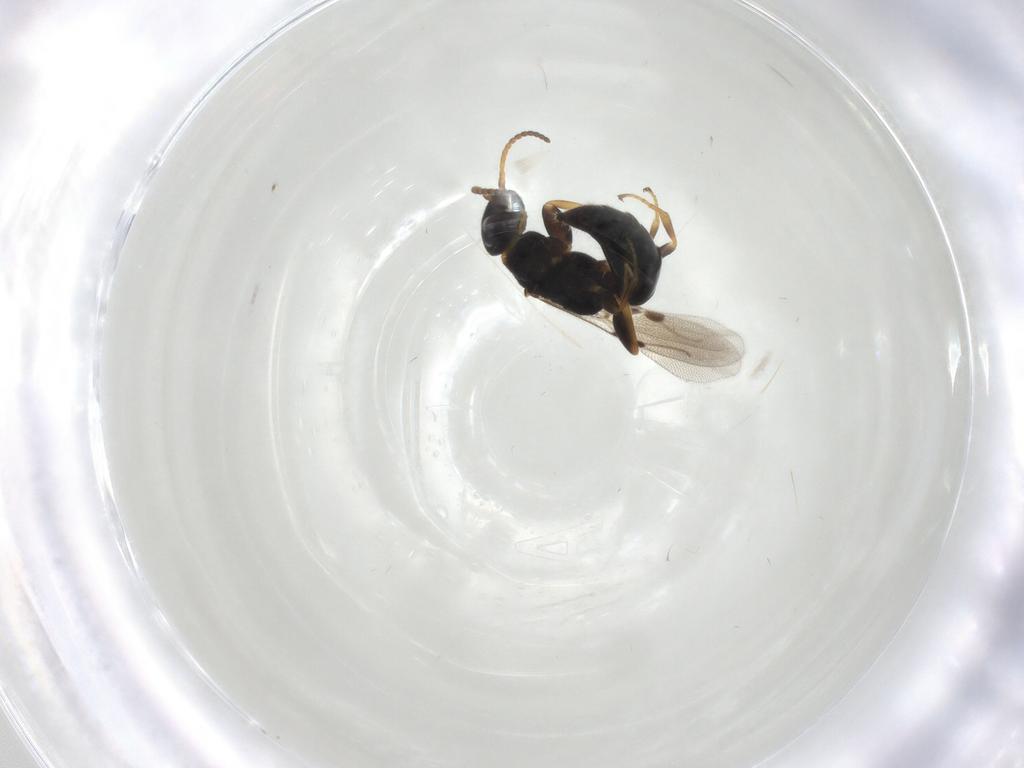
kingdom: Animalia
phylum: Arthropoda
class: Insecta
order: Hymenoptera
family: Bethylidae
